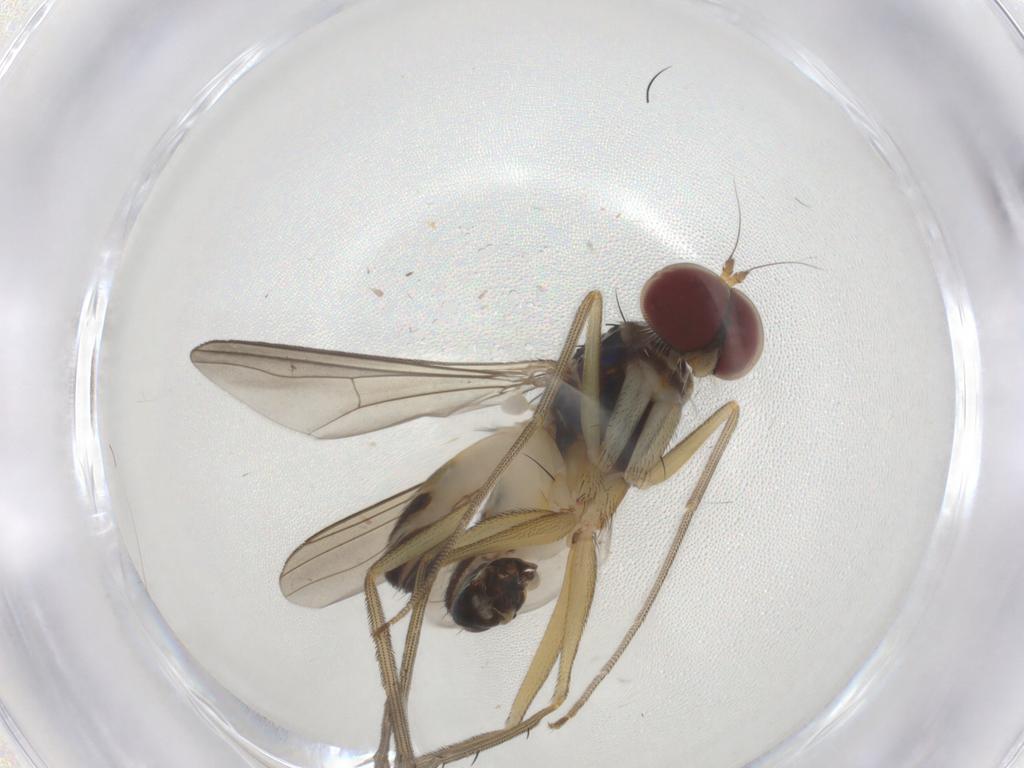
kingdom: Animalia
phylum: Arthropoda
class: Insecta
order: Diptera
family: Dolichopodidae
